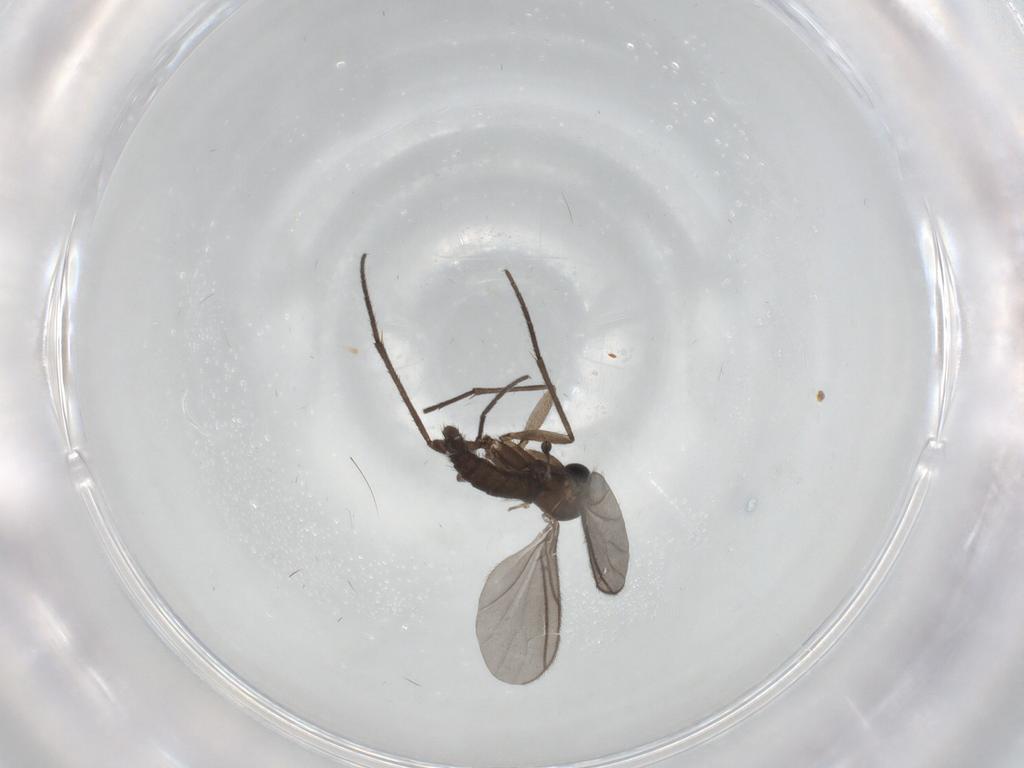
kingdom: Animalia
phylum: Arthropoda
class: Insecta
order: Diptera
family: Sciaridae
